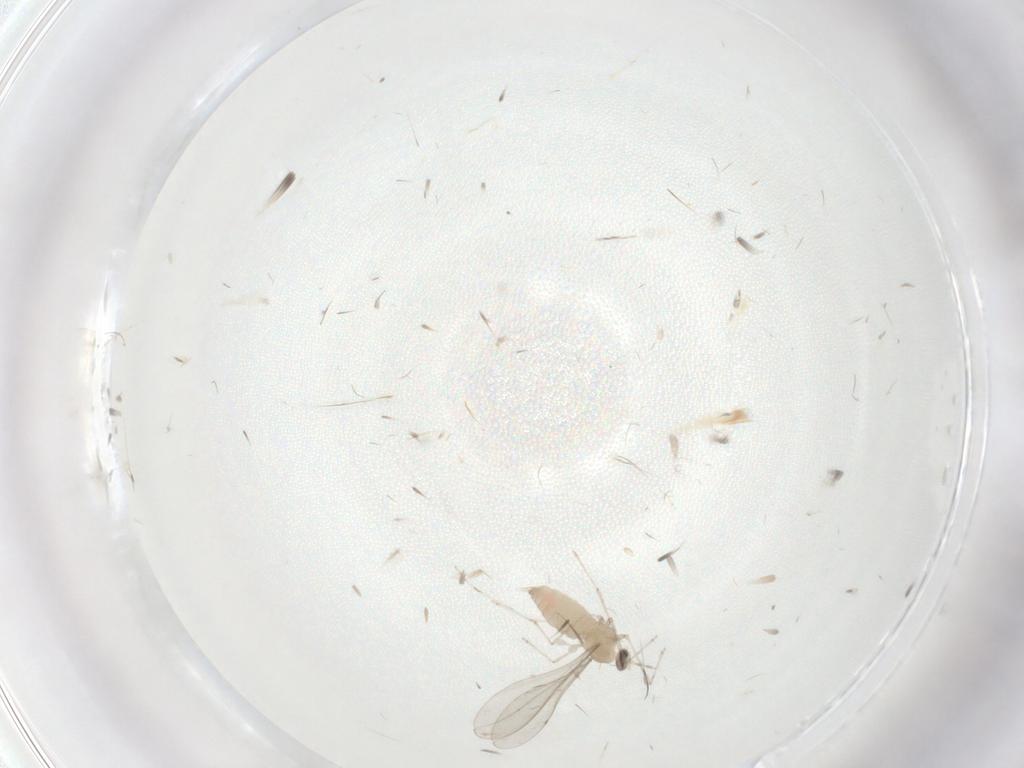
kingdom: Animalia
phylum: Arthropoda
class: Insecta
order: Diptera
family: Cecidomyiidae
